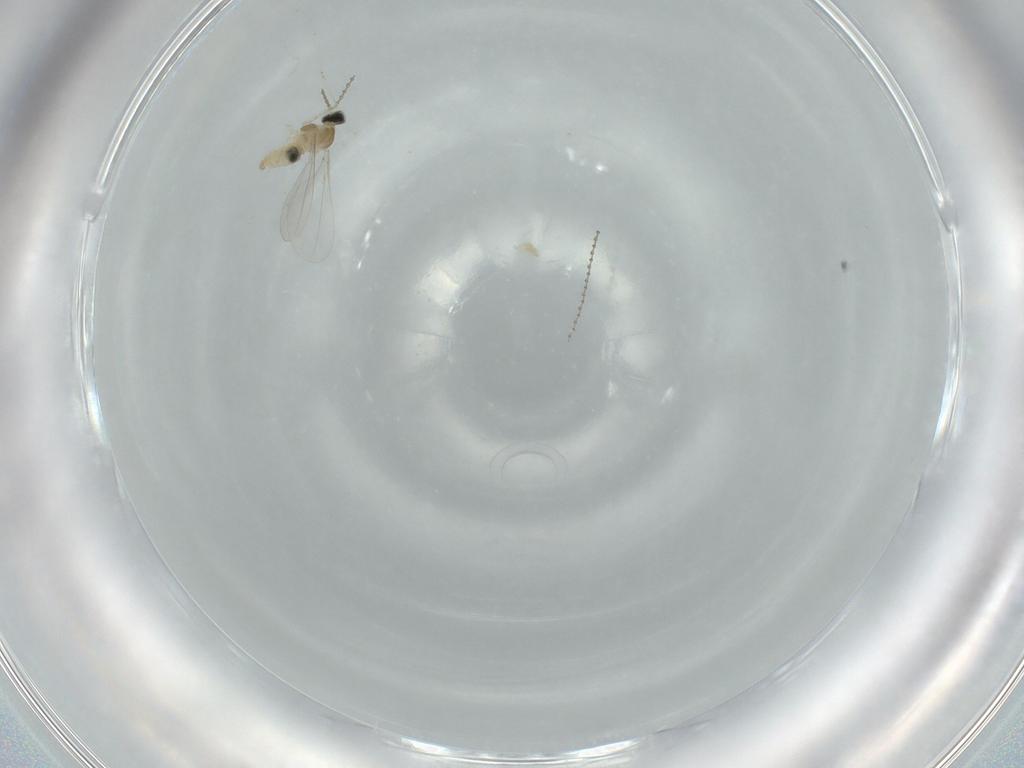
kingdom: Animalia
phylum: Arthropoda
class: Insecta
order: Diptera
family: Cecidomyiidae
